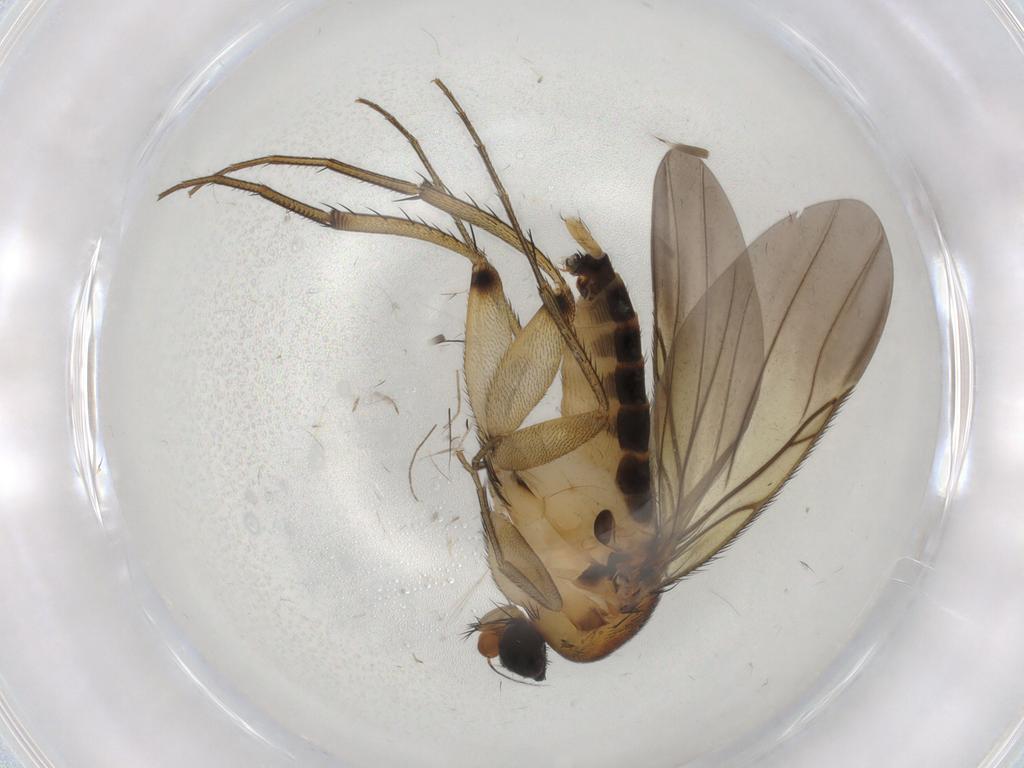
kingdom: Animalia
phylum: Arthropoda
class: Insecta
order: Diptera
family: Phoridae
